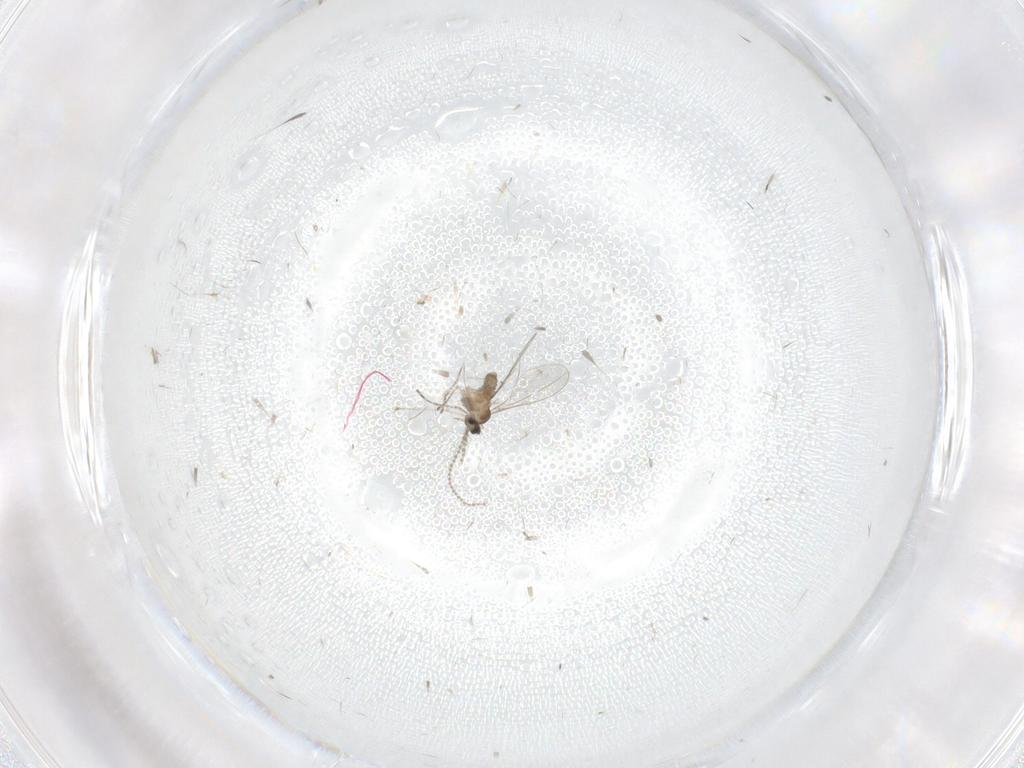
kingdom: Animalia
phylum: Arthropoda
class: Insecta
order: Diptera
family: Cecidomyiidae
